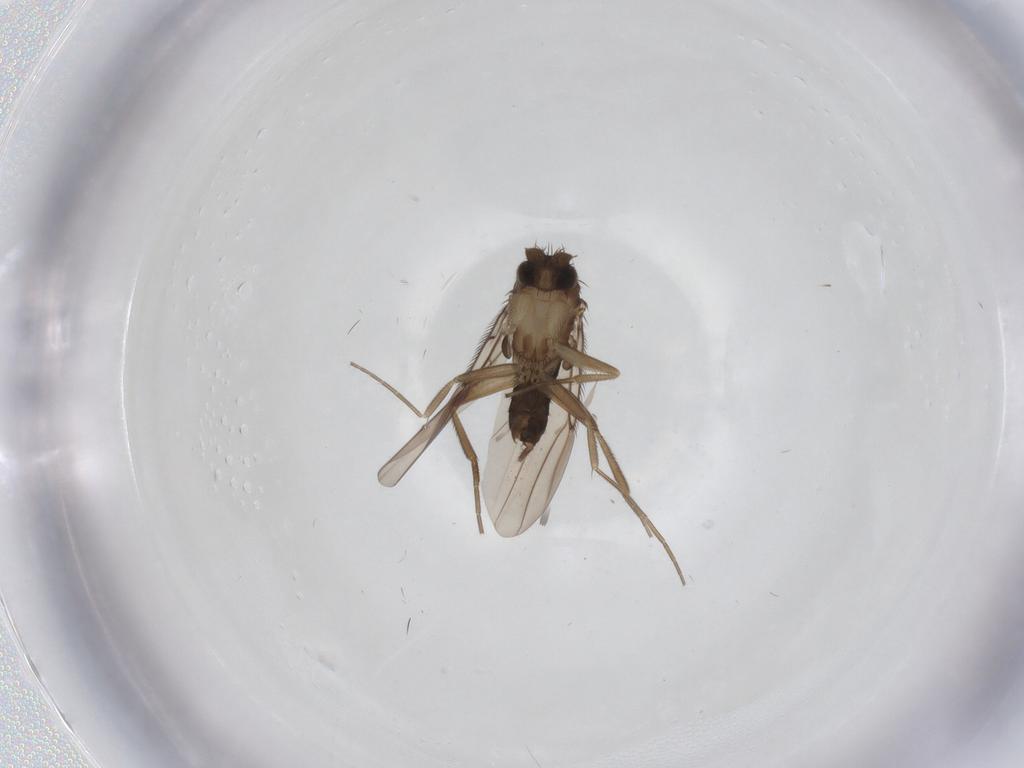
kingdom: Animalia
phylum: Arthropoda
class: Insecta
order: Diptera
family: Phoridae
